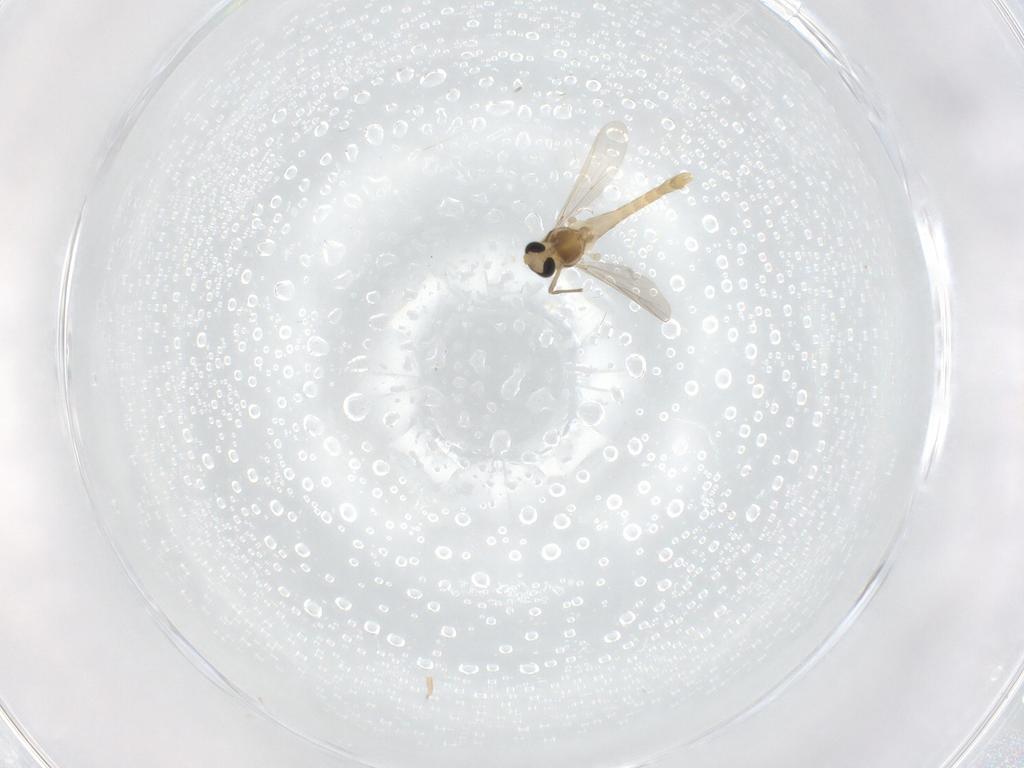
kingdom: Animalia
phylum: Arthropoda
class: Insecta
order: Diptera
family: Chironomidae
